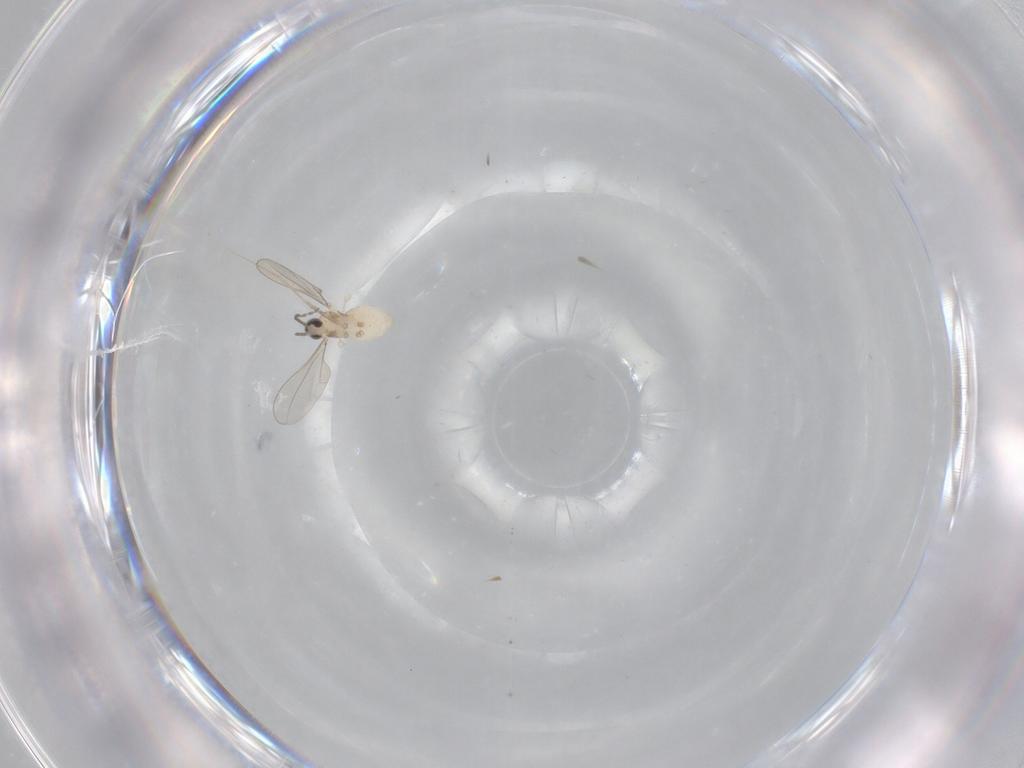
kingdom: Animalia
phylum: Arthropoda
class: Insecta
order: Diptera
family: Cecidomyiidae
